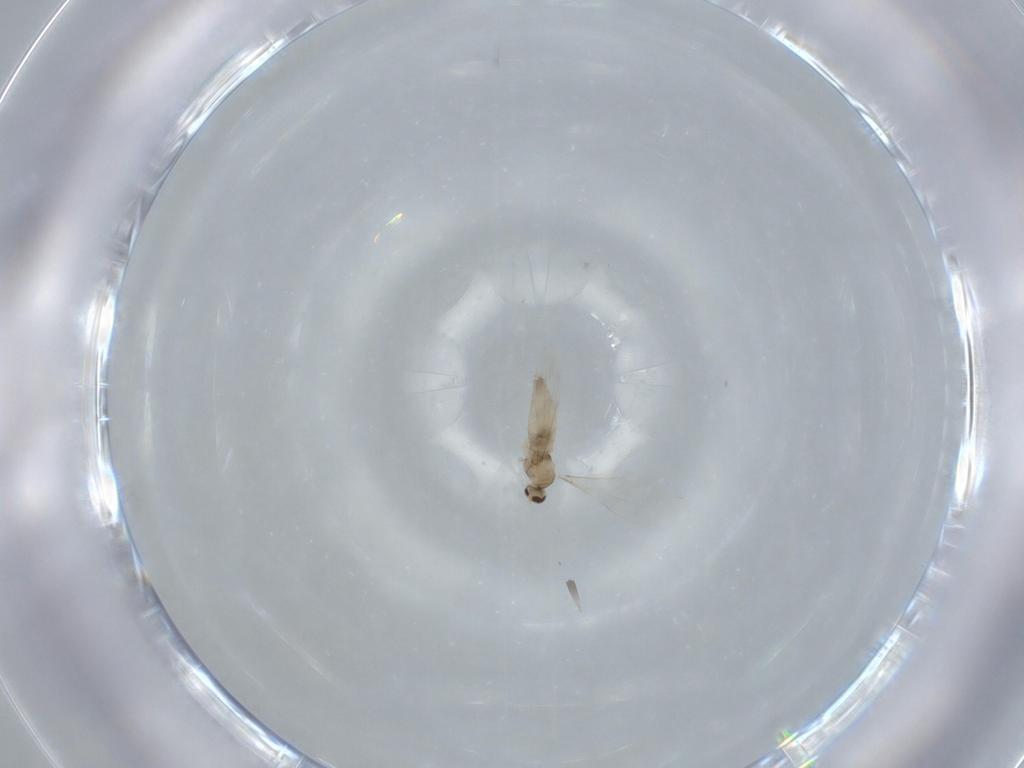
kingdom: Animalia
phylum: Arthropoda
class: Insecta
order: Diptera
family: Cecidomyiidae
